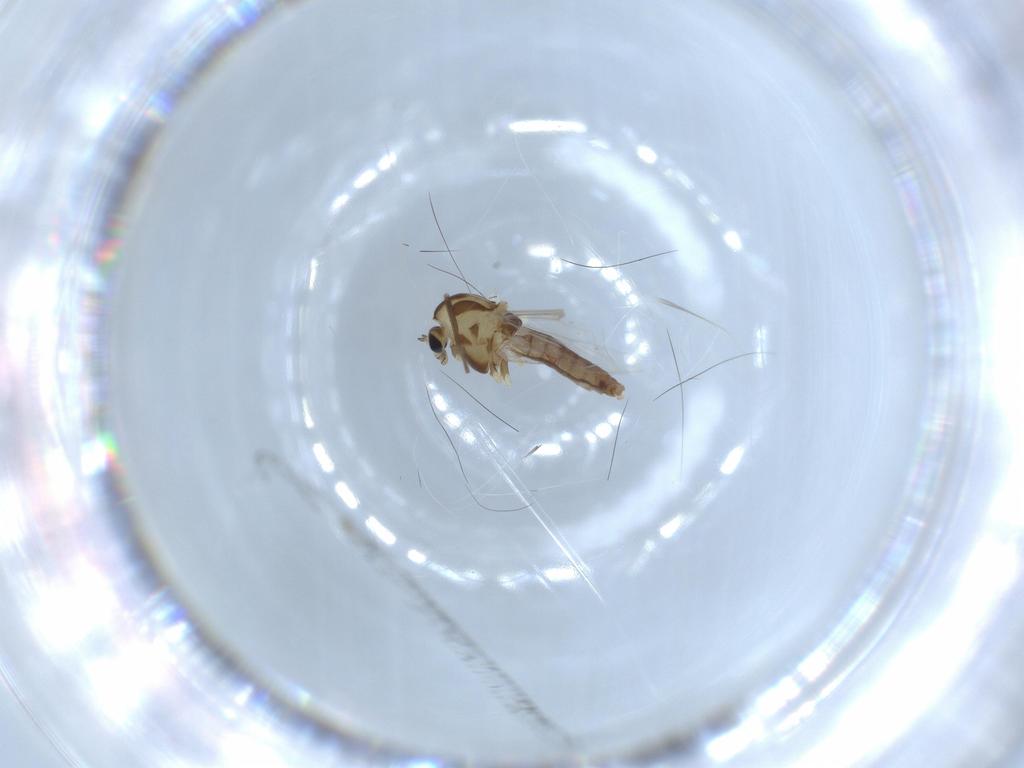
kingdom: Animalia
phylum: Arthropoda
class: Insecta
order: Diptera
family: Chironomidae
